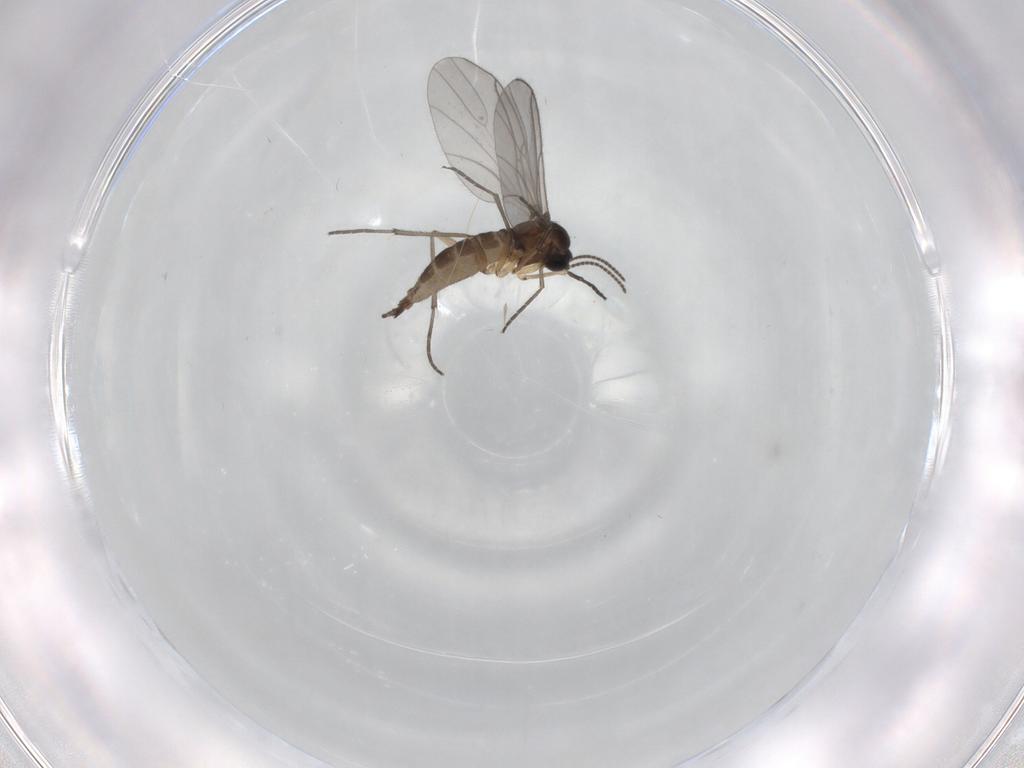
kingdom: Animalia
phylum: Arthropoda
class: Insecta
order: Diptera
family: Sciaridae
